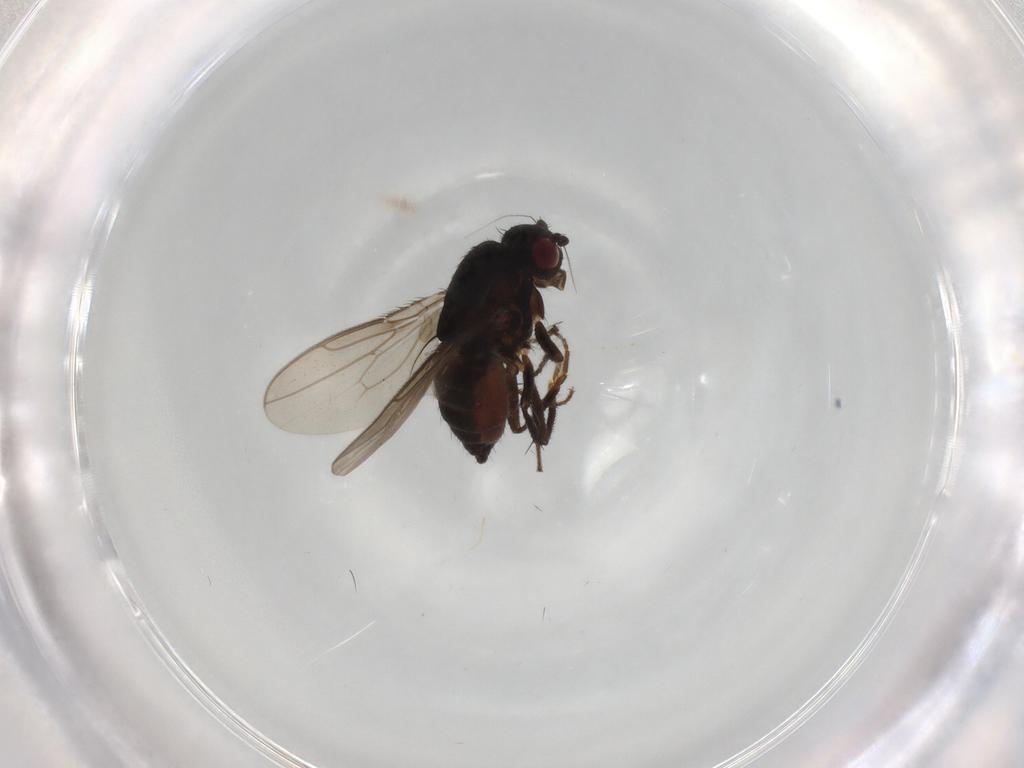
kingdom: Animalia
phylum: Arthropoda
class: Insecta
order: Diptera
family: Cecidomyiidae
